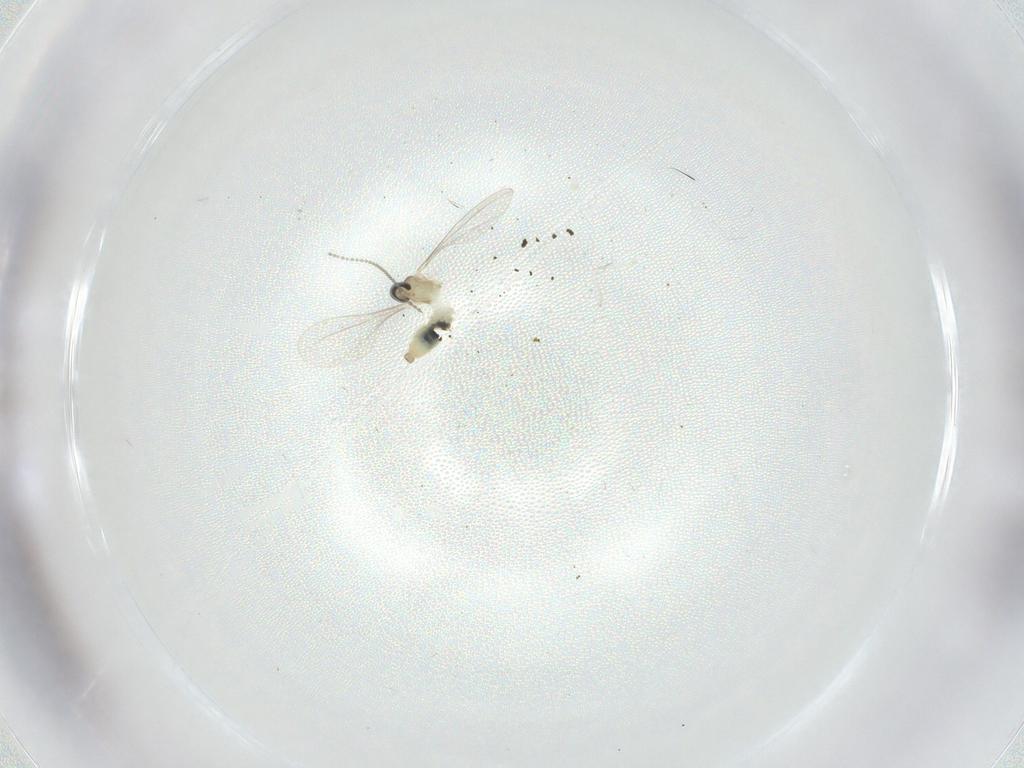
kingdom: Animalia
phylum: Arthropoda
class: Insecta
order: Diptera
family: Cecidomyiidae
